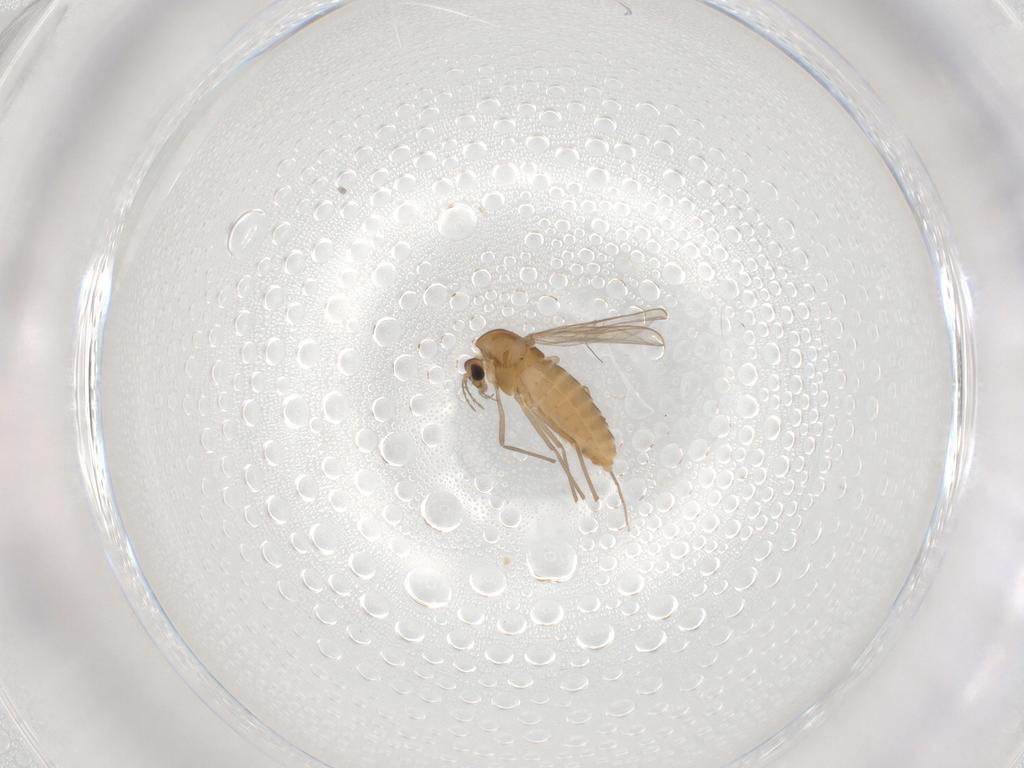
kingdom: Animalia
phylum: Arthropoda
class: Insecta
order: Diptera
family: Chironomidae
